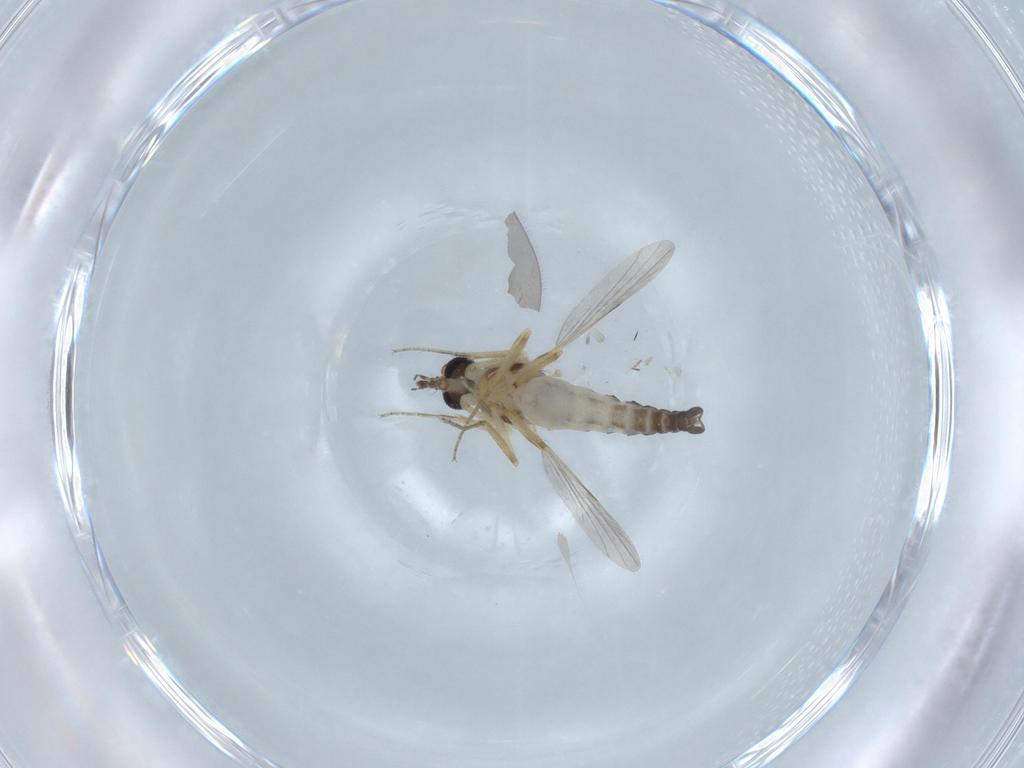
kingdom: Animalia
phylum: Arthropoda
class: Insecta
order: Diptera
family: Ceratopogonidae
